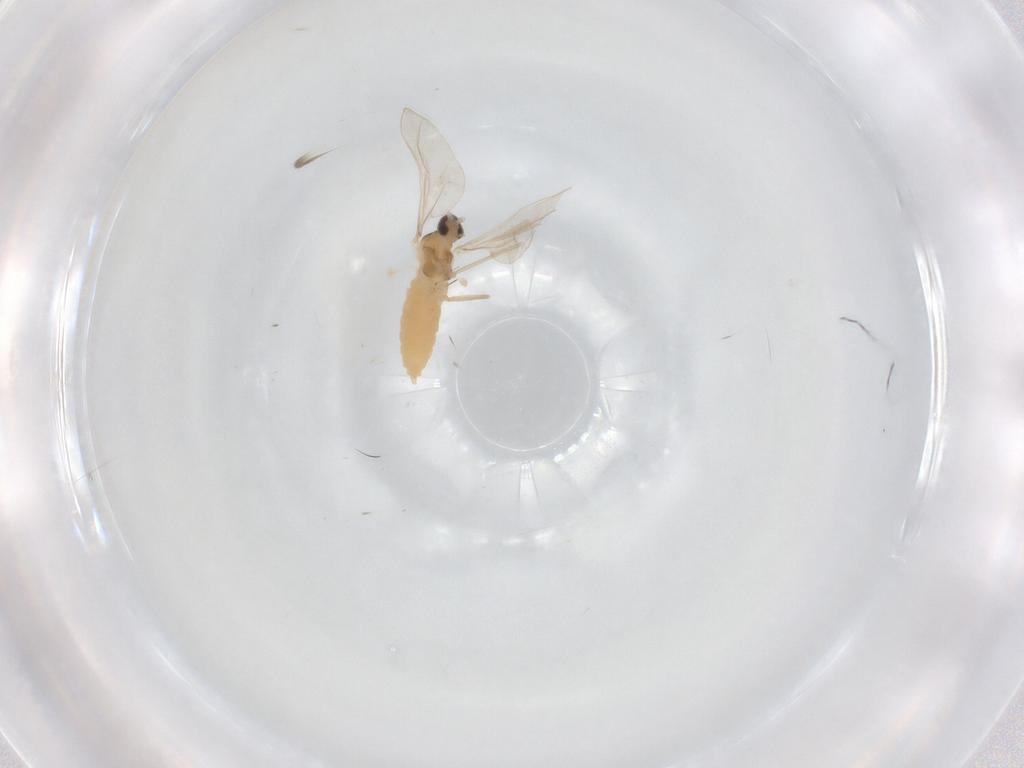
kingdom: Animalia
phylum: Arthropoda
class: Insecta
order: Diptera
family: Cecidomyiidae
